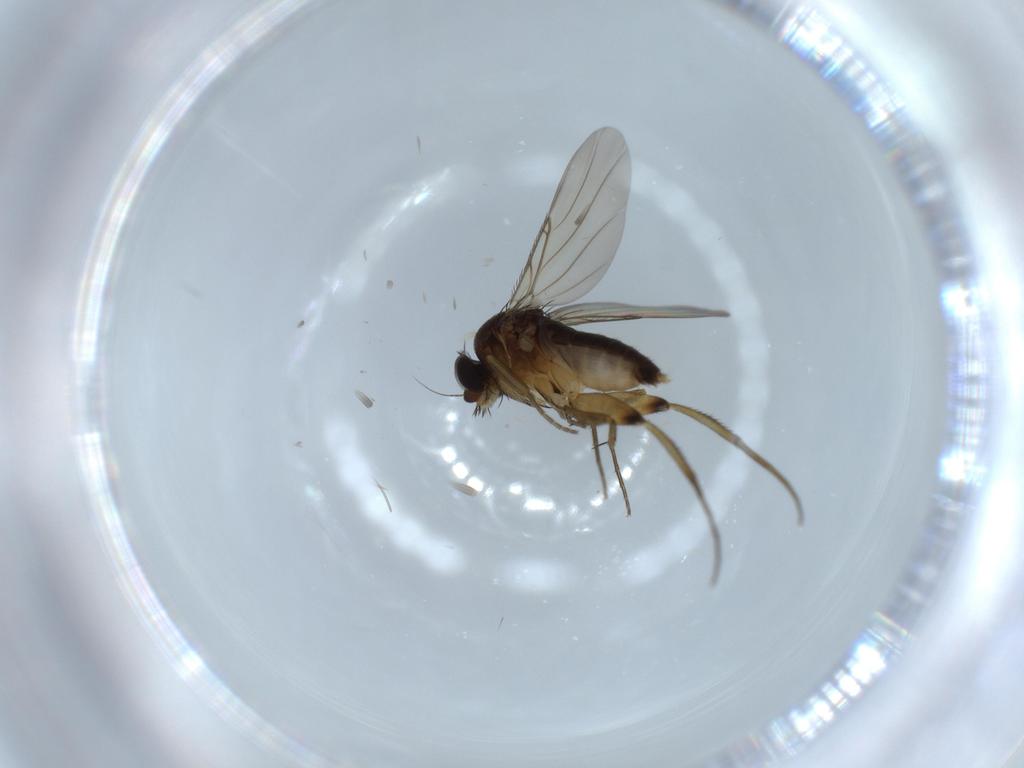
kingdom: Animalia
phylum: Arthropoda
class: Insecta
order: Diptera
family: Phoridae
